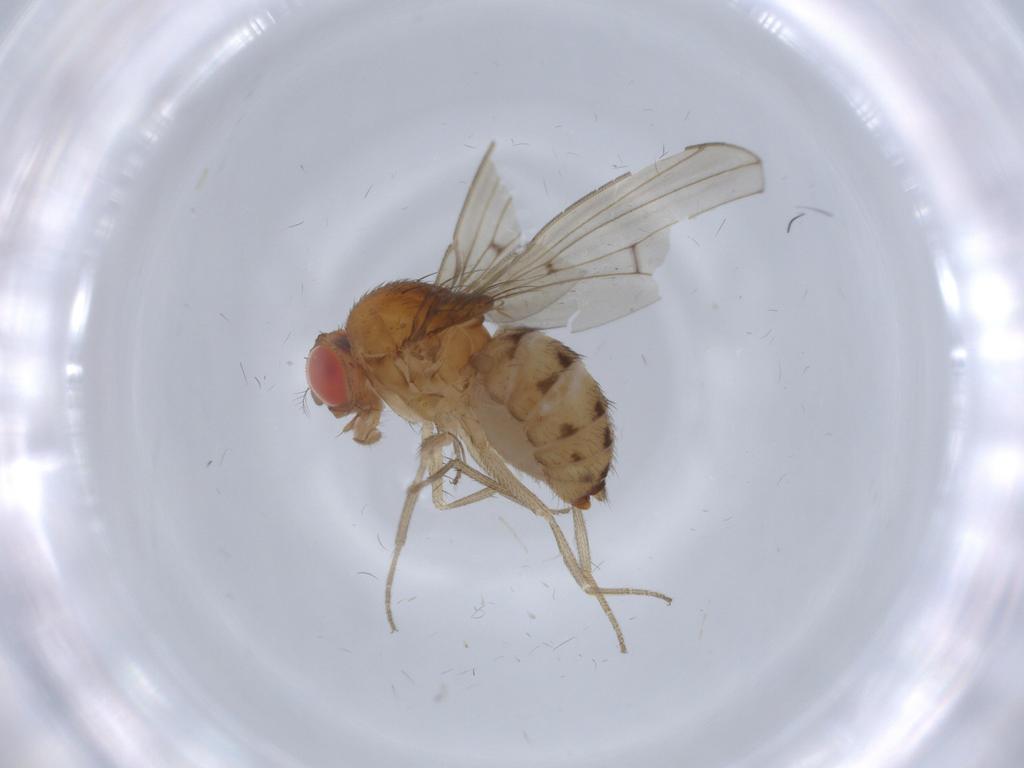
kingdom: Animalia
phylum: Arthropoda
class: Insecta
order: Diptera
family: Drosophilidae
